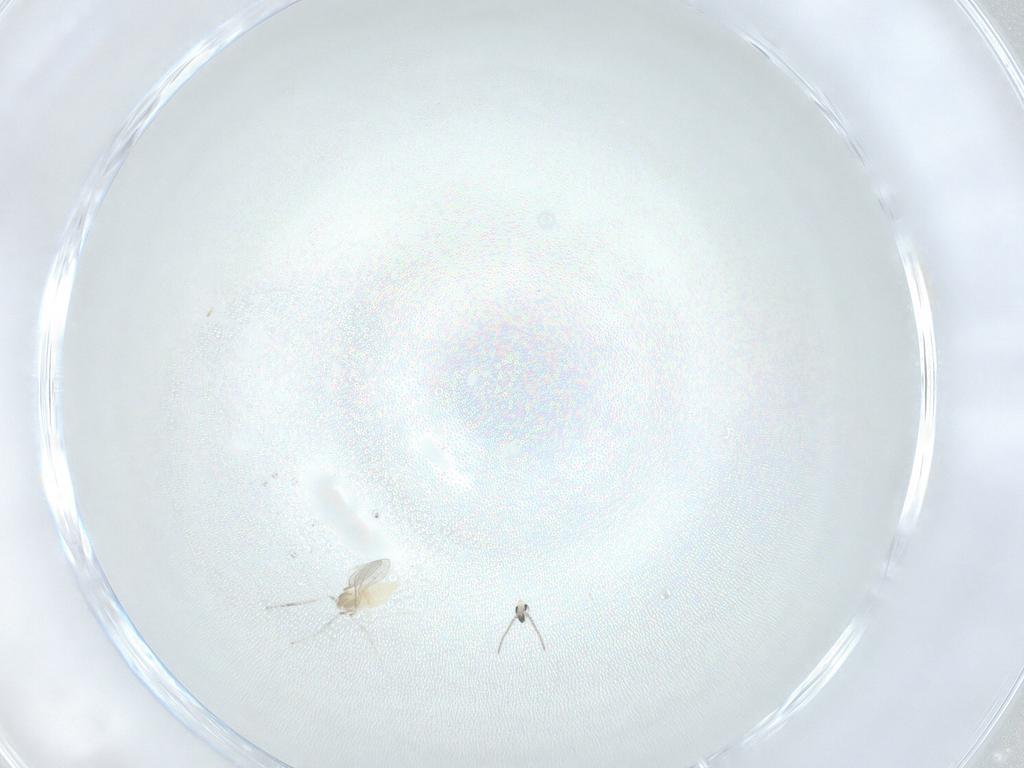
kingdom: Animalia
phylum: Arthropoda
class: Insecta
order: Diptera
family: Cecidomyiidae
